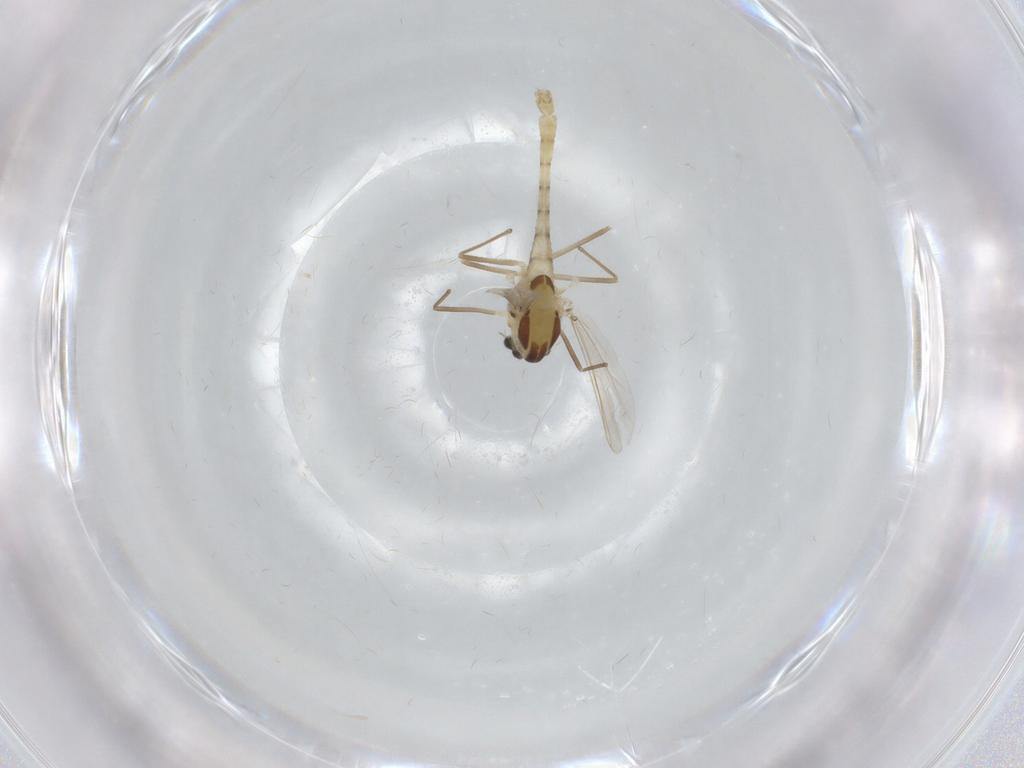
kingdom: Animalia
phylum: Arthropoda
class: Insecta
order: Diptera
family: Chironomidae
